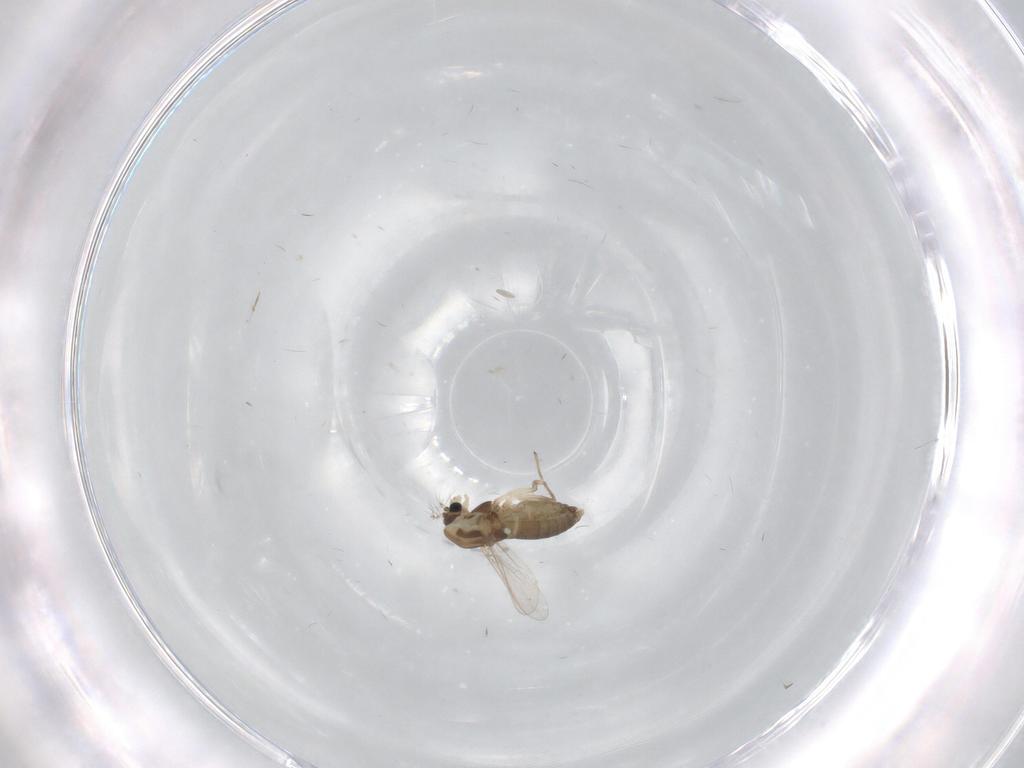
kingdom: Animalia
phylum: Arthropoda
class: Insecta
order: Diptera
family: Chironomidae
